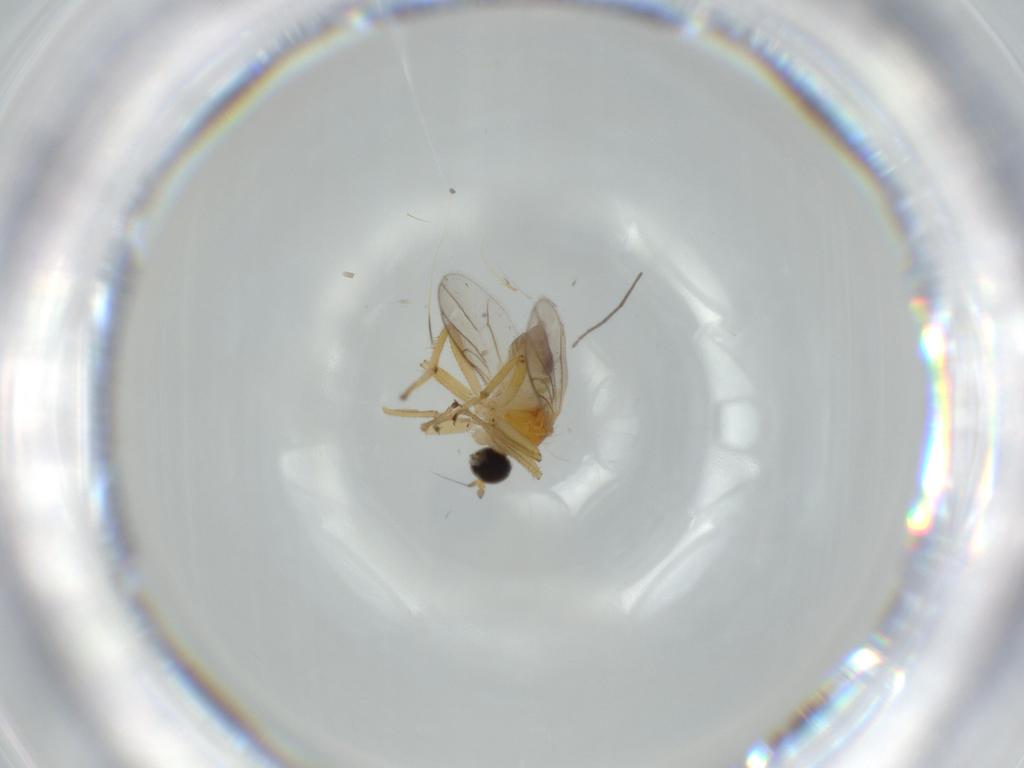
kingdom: Animalia
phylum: Arthropoda
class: Insecta
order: Diptera
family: Hybotidae
